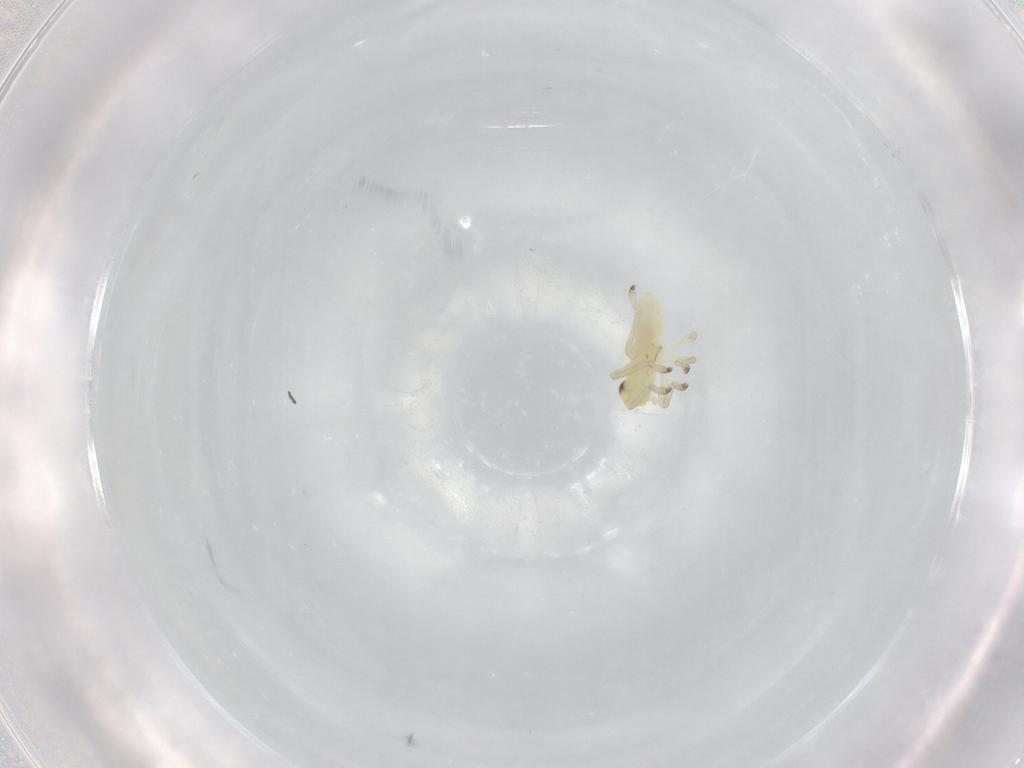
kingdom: Animalia
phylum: Arthropoda
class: Insecta
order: Hemiptera
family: Cicadellidae
